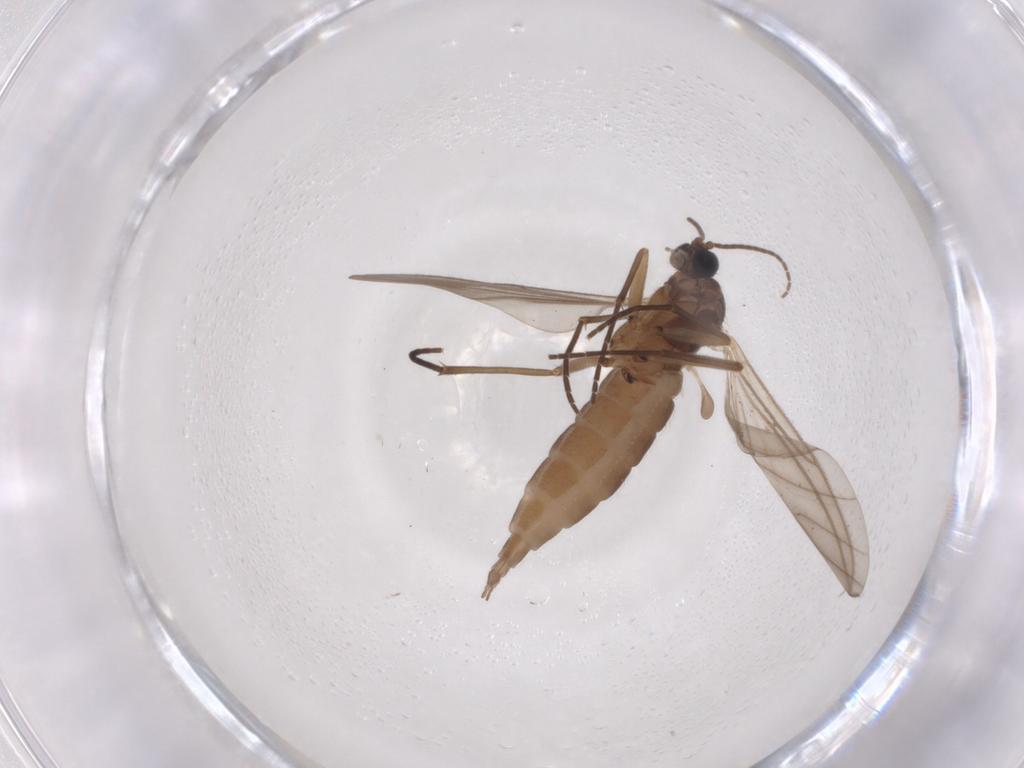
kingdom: Animalia
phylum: Arthropoda
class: Insecta
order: Diptera
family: Sciaridae
